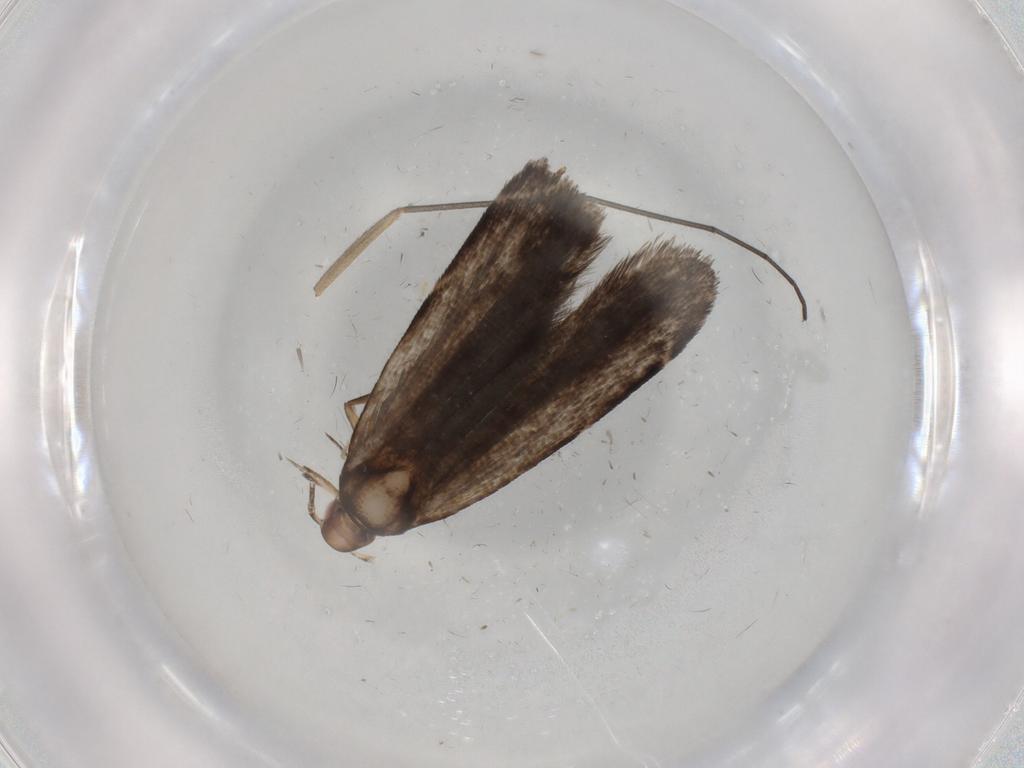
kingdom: Animalia
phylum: Arthropoda
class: Insecta
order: Lepidoptera
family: Gelechiidae
